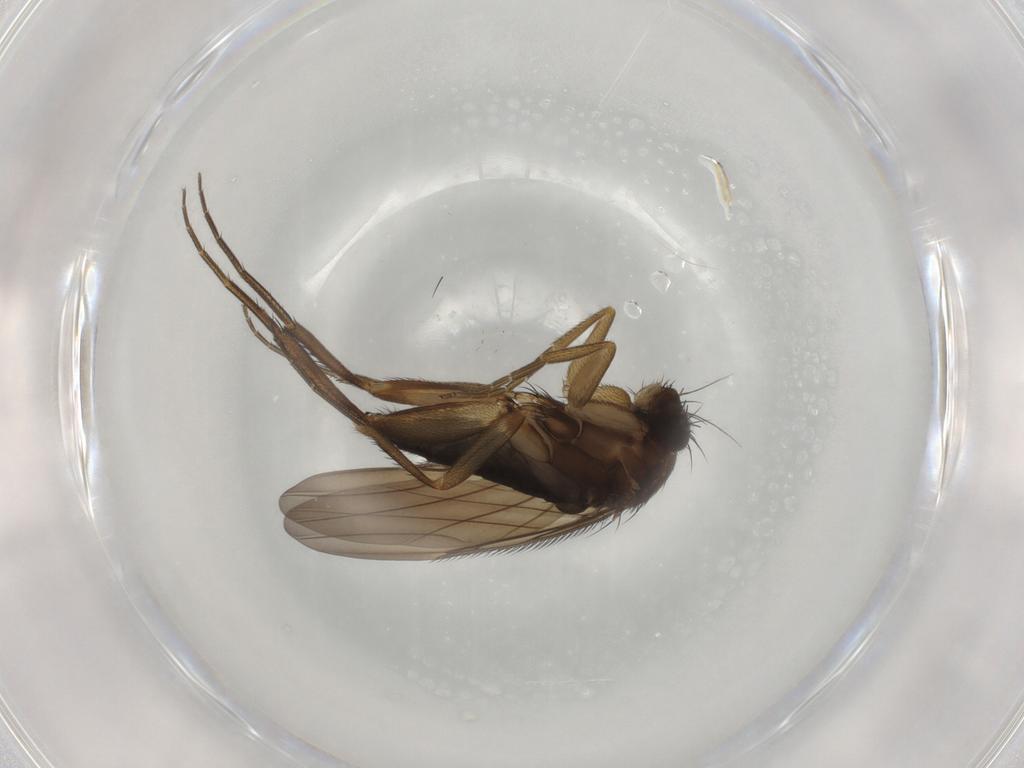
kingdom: Animalia
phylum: Arthropoda
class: Insecta
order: Diptera
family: Phoridae
